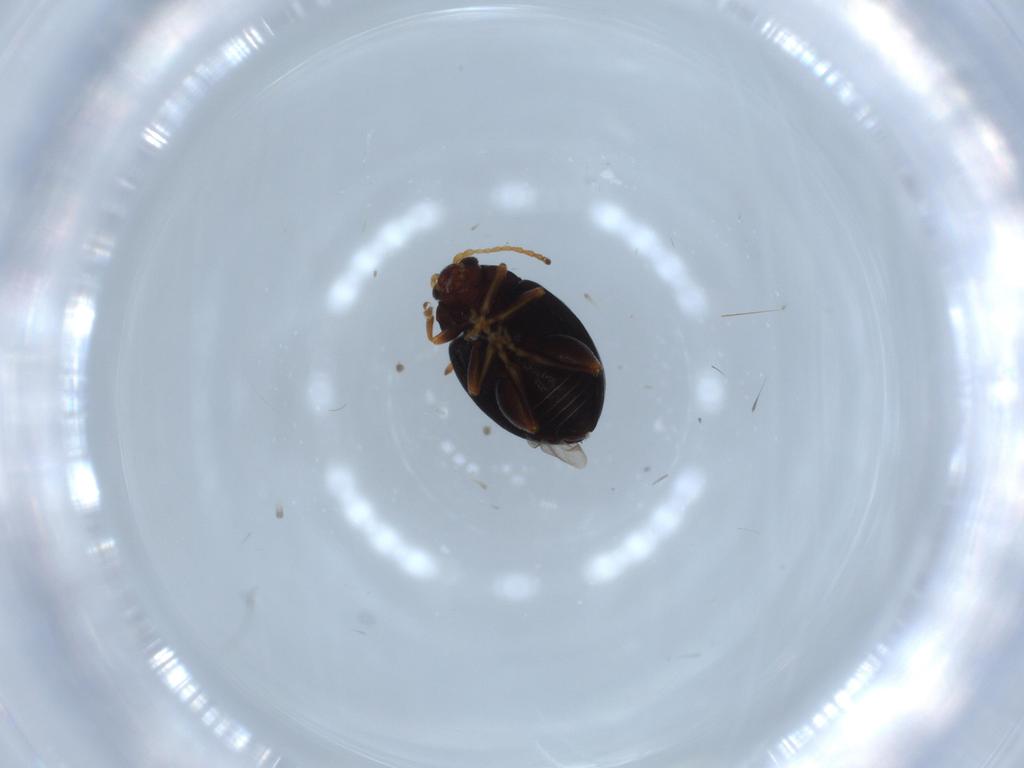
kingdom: Animalia
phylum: Arthropoda
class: Insecta
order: Coleoptera
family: Chrysomelidae
